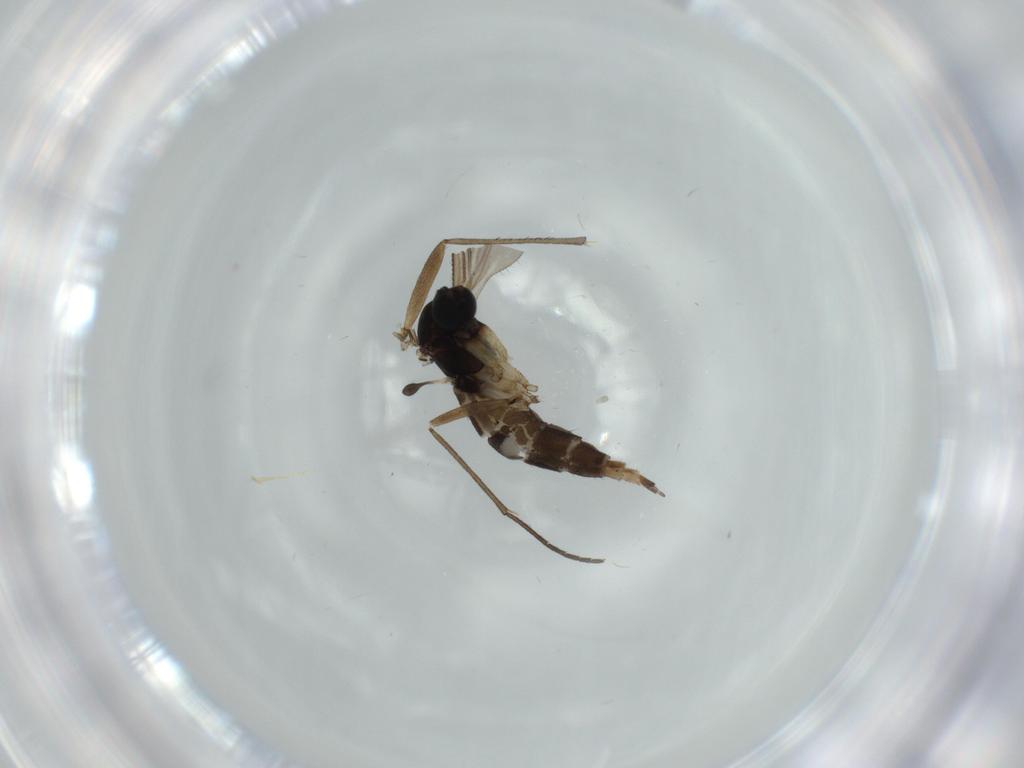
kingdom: Animalia
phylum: Arthropoda
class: Insecta
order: Diptera
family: Sciaridae
